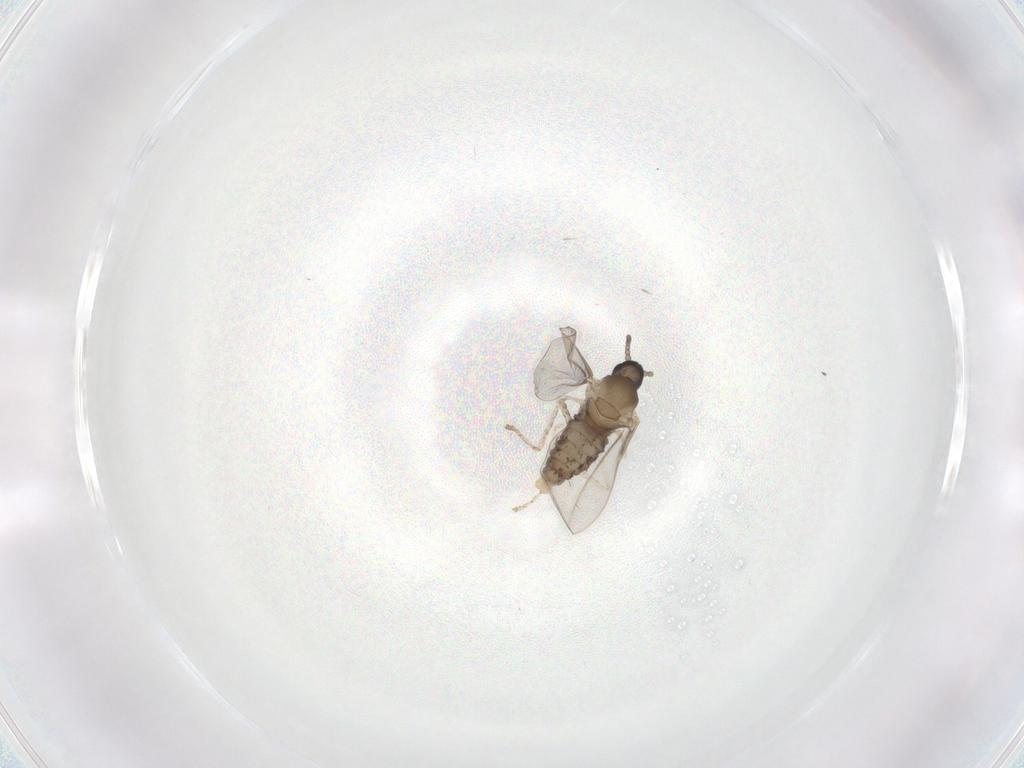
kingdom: Animalia
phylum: Arthropoda
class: Insecta
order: Diptera
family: Cecidomyiidae
